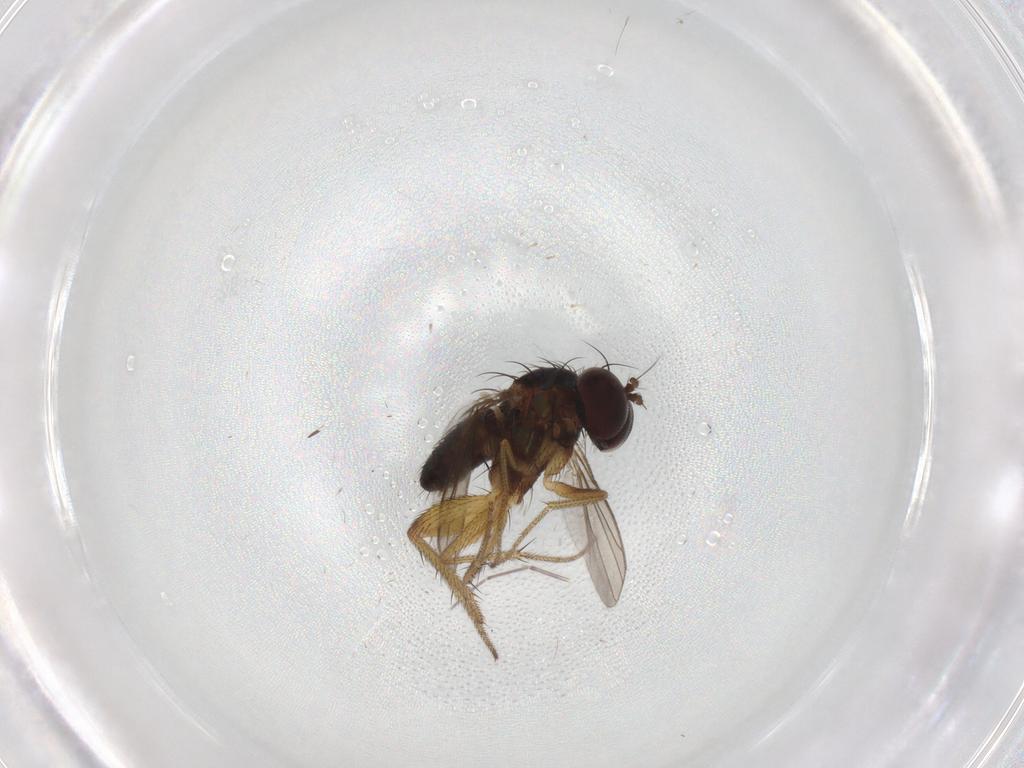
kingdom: Animalia
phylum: Arthropoda
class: Insecta
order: Diptera
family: Dolichopodidae
